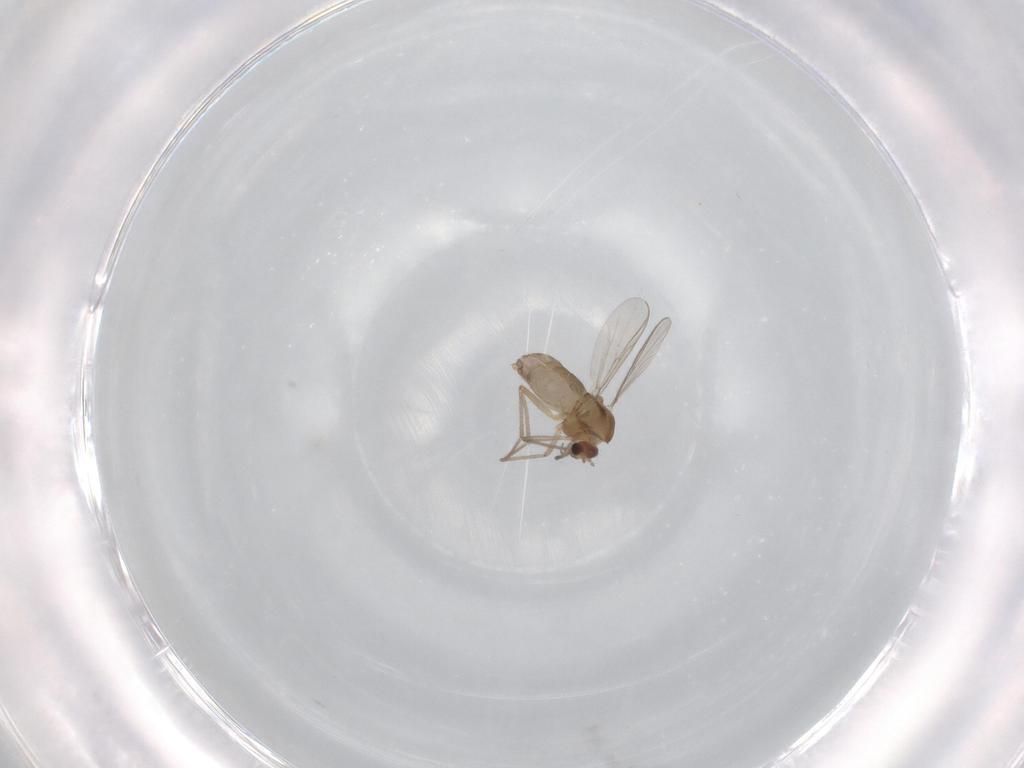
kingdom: Animalia
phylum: Arthropoda
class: Insecta
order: Diptera
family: Chironomidae
